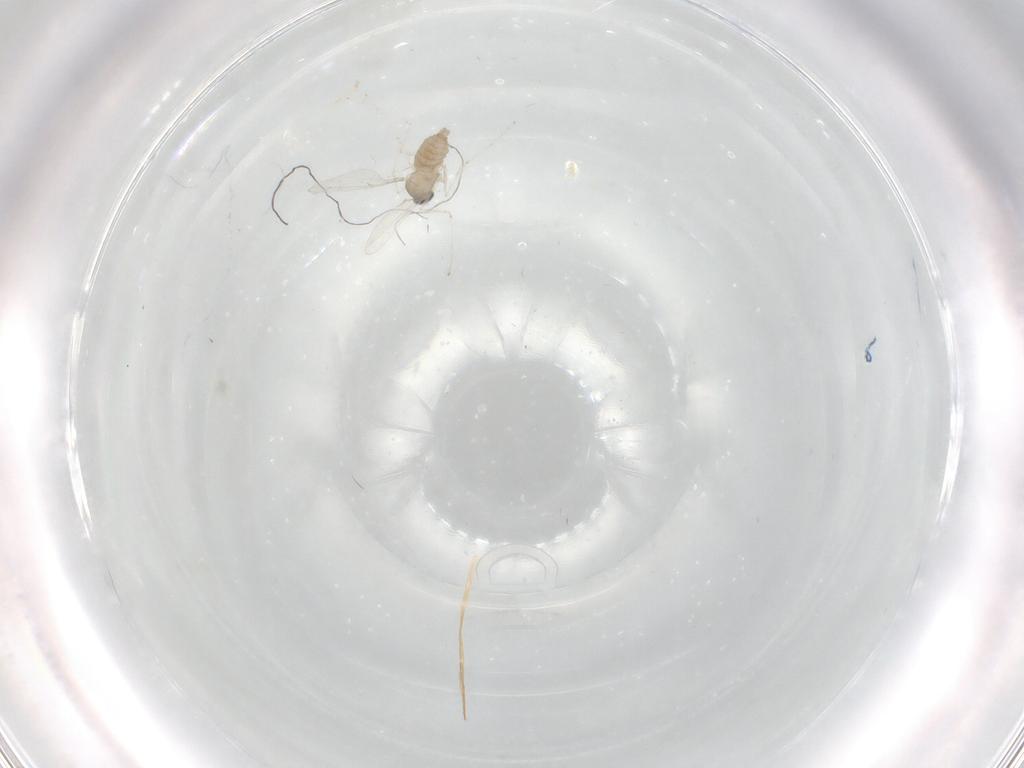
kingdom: Animalia
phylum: Arthropoda
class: Insecta
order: Diptera
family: Cecidomyiidae
